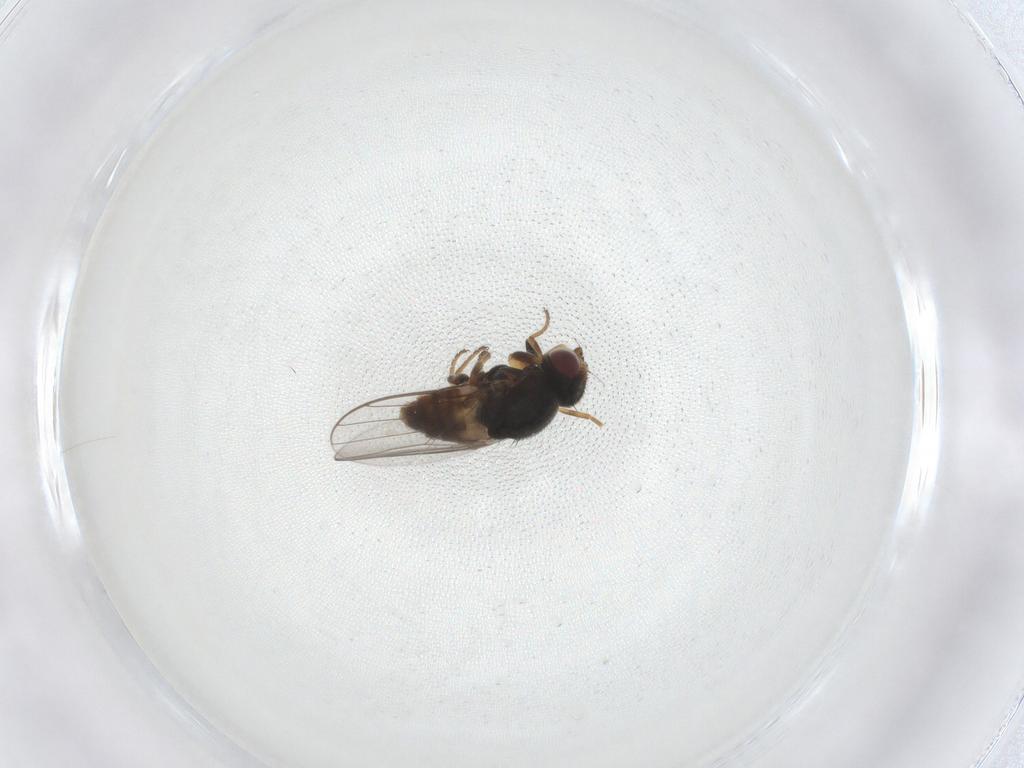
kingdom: Animalia
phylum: Arthropoda
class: Insecta
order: Diptera
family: Chloropidae
